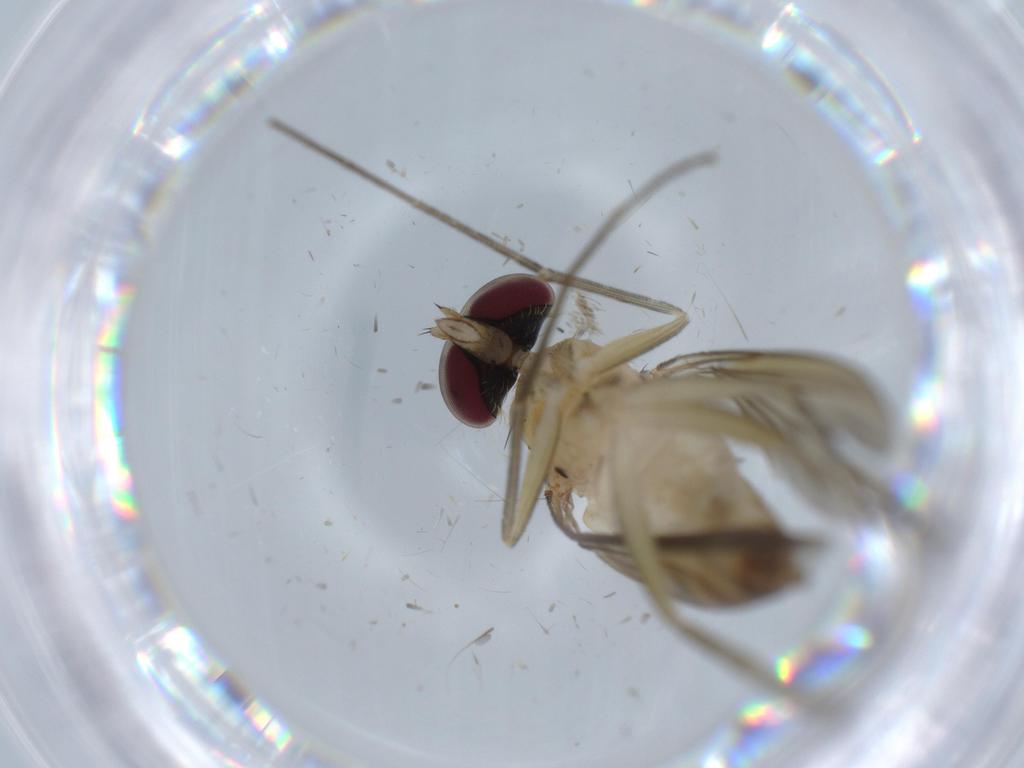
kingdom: Animalia
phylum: Arthropoda
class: Insecta
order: Diptera
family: Dolichopodidae
